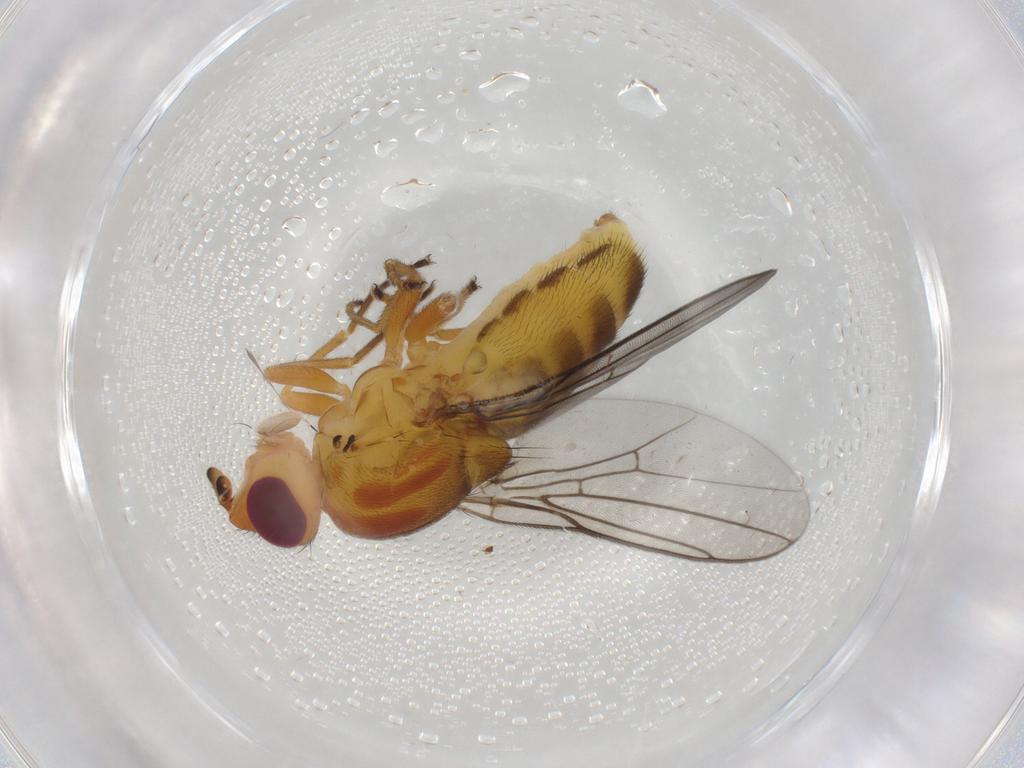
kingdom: Animalia
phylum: Arthropoda
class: Insecta
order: Diptera
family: Chloropidae
